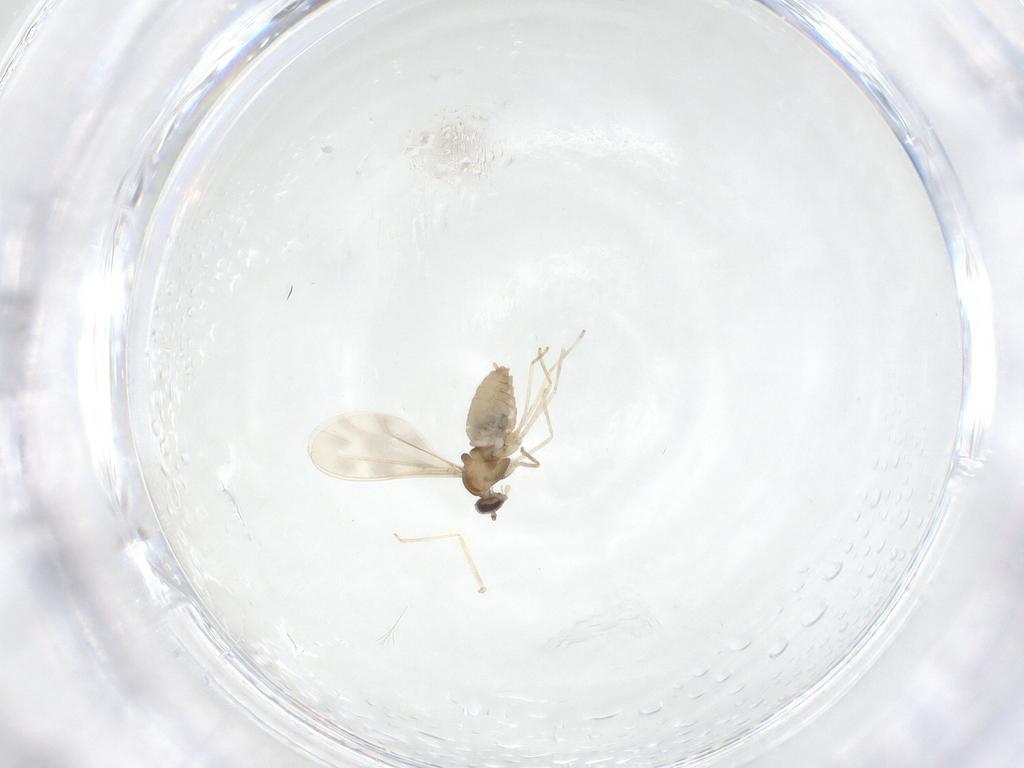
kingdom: Animalia
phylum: Arthropoda
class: Insecta
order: Diptera
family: Cecidomyiidae
